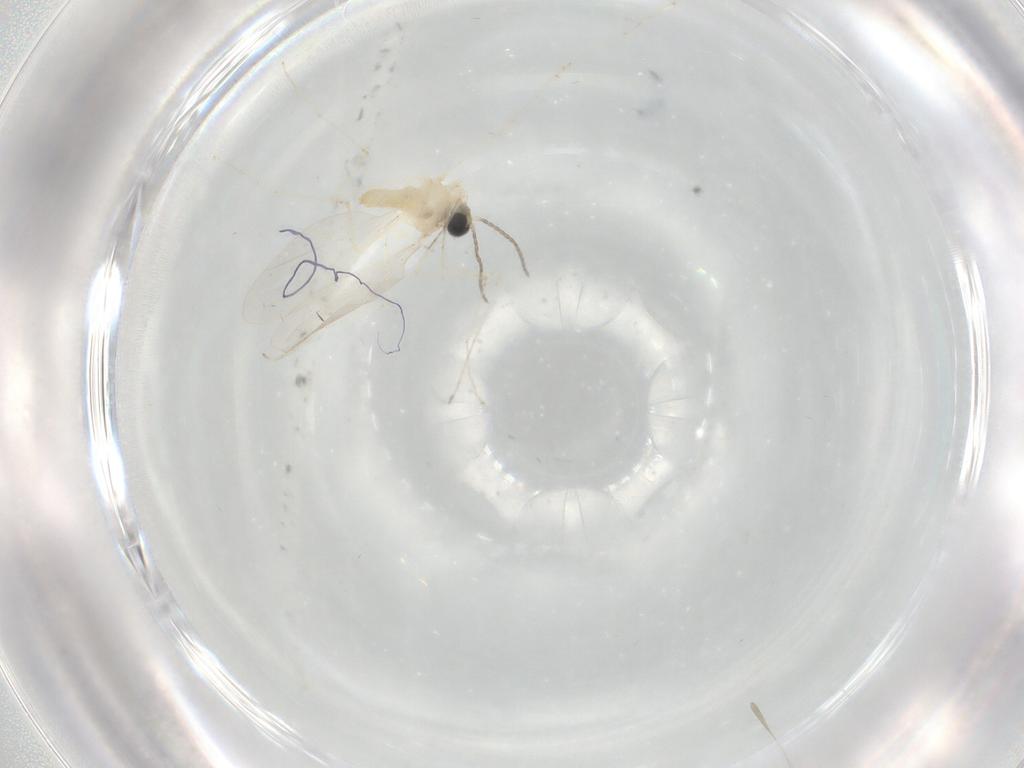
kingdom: Animalia
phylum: Arthropoda
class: Insecta
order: Diptera
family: Cecidomyiidae
